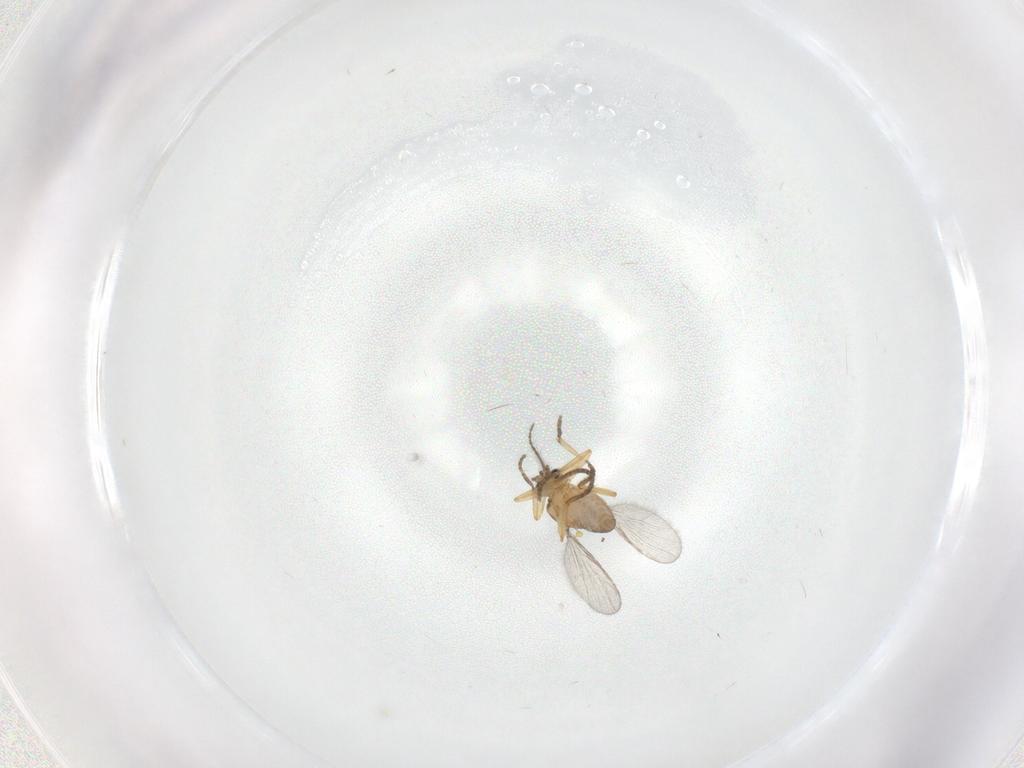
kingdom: Animalia
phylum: Arthropoda
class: Insecta
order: Diptera
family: Ceratopogonidae
